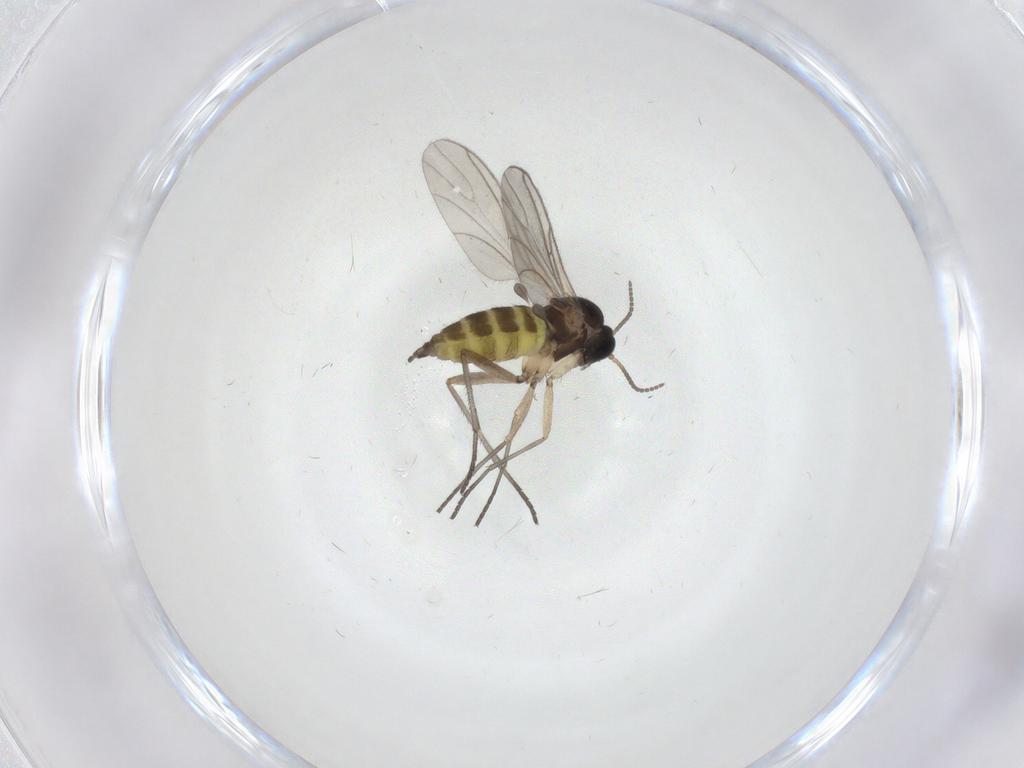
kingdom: Animalia
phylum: Arthropoda
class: Insecta
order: Diptera
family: Sciaridae
